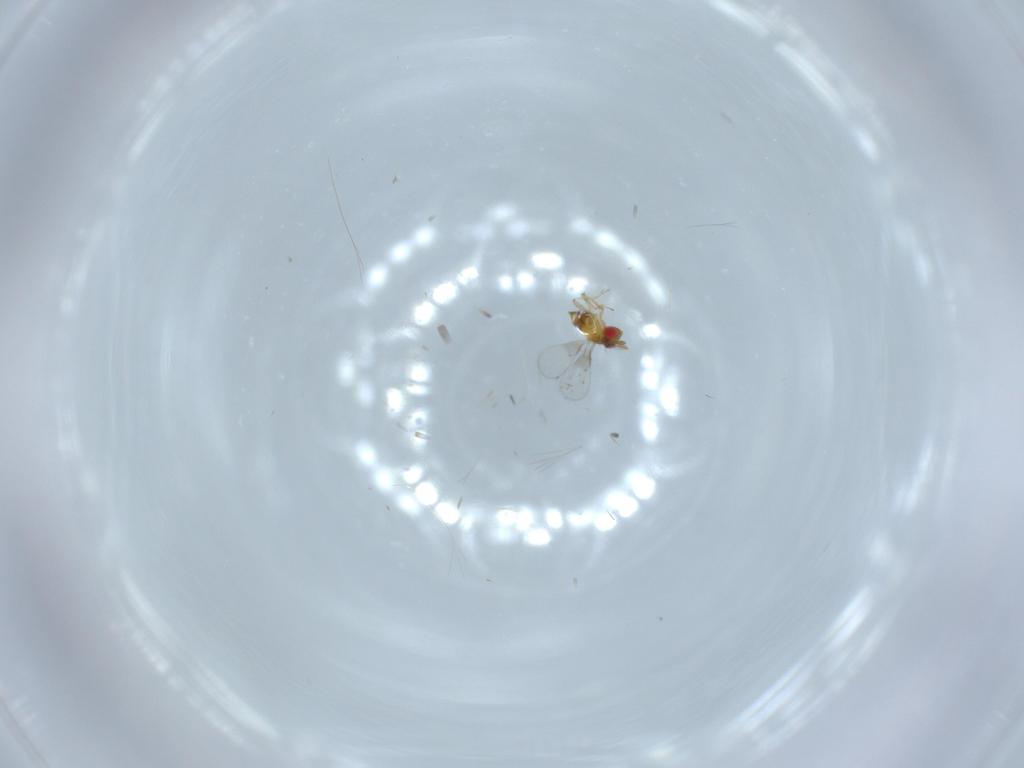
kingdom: Animalia
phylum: Arthropoda
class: Insecta
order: Hymenoptera
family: Trichogrammatidae
